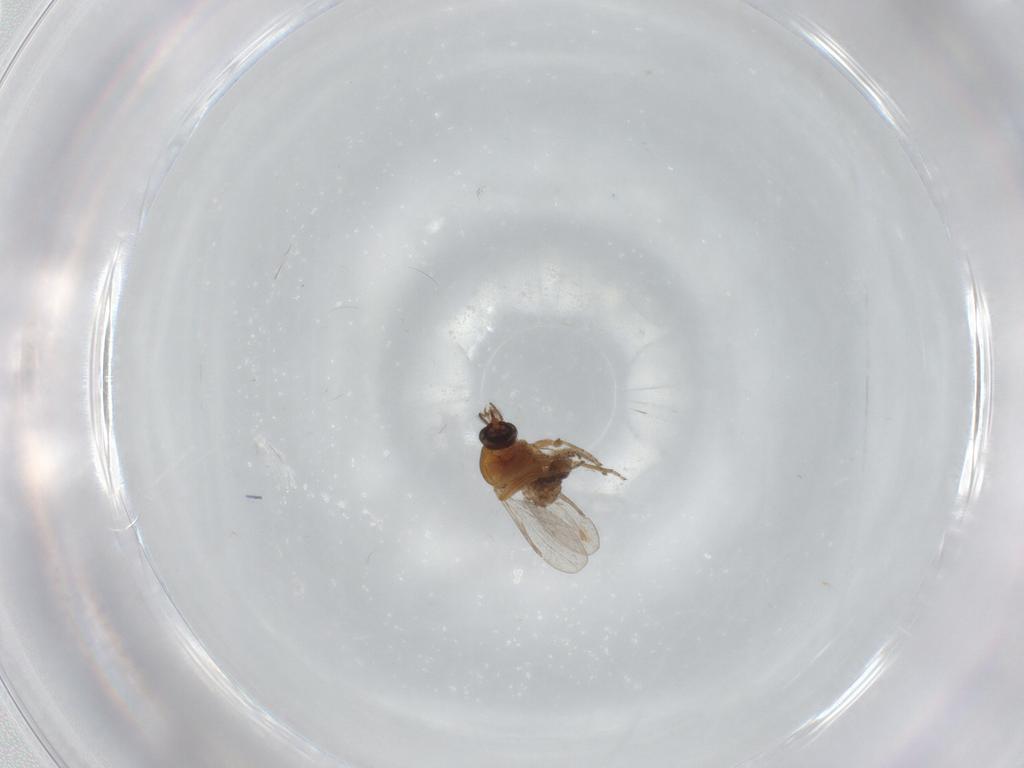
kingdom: Animalia
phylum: Arthropoda
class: Insecta
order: Diptera
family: Ceratopogonidae
